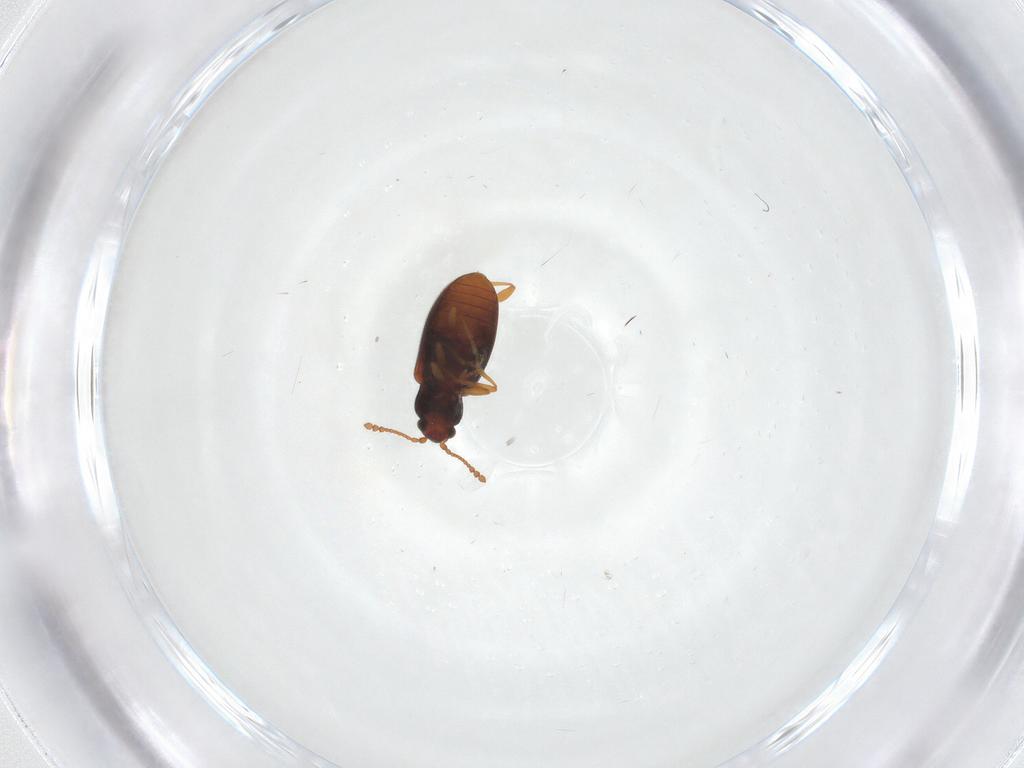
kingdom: Animalia
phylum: Arthropoda
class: Insecta
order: Coleoptera
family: Cryptophagidae
